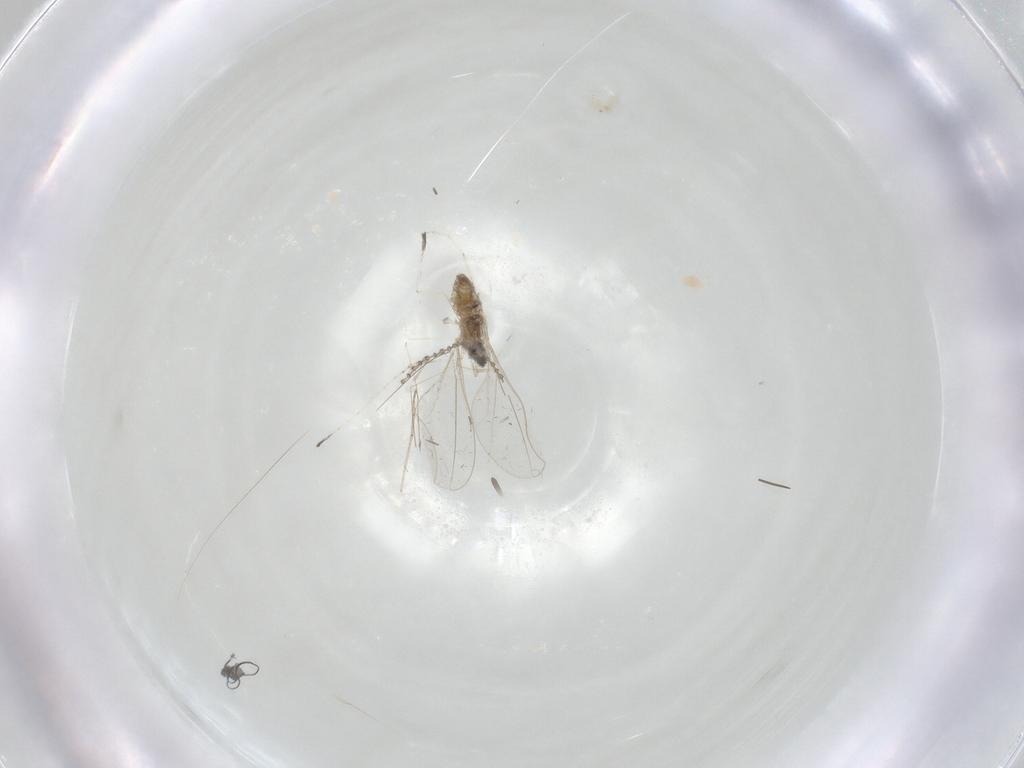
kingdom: Animalia
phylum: Arthropoda
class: Insecta
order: Diptera
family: Cecidomyiidae
